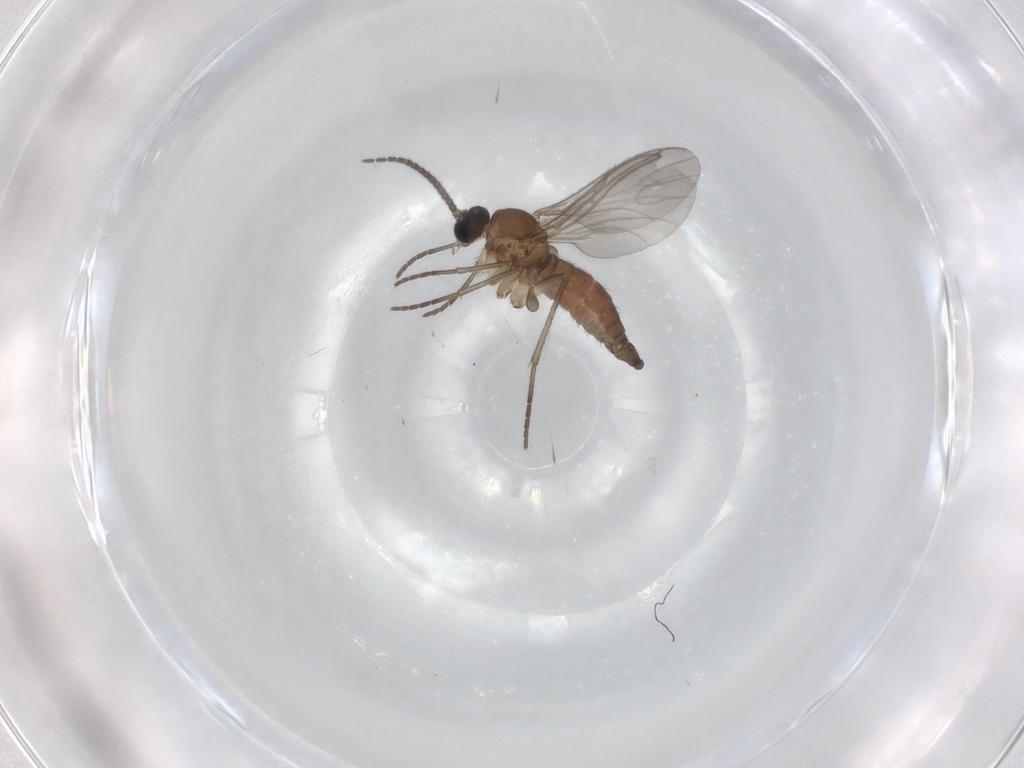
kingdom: Animalia
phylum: Arthropoda
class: Insecta
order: Diptera
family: Sciaridae
